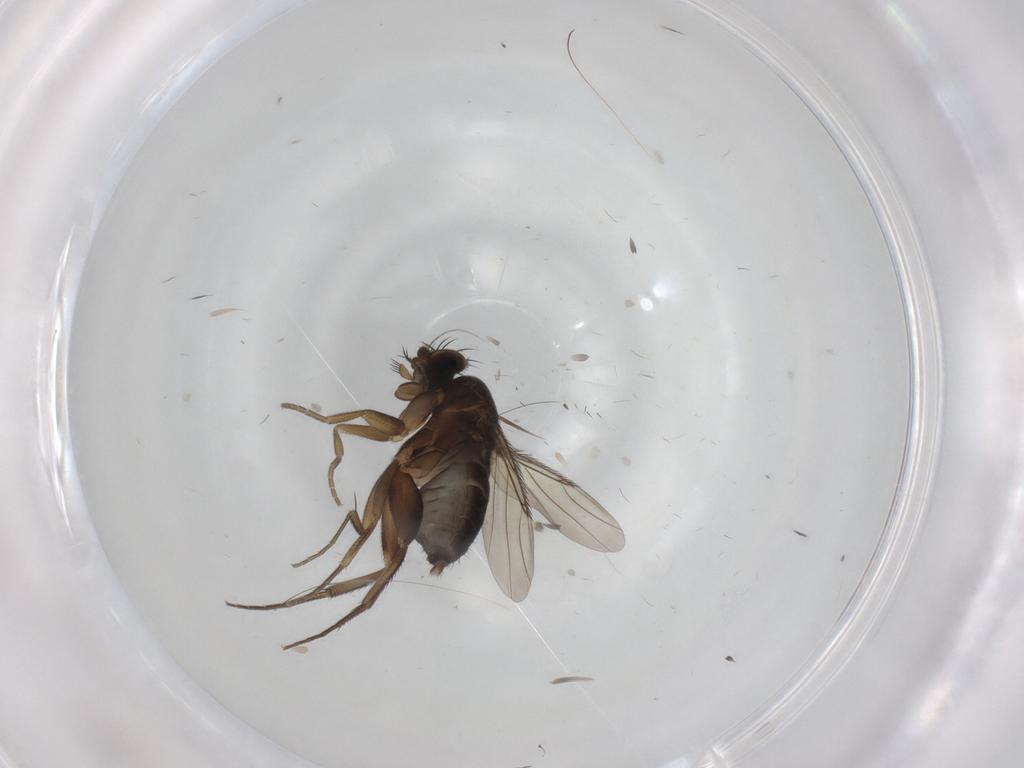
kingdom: Animalia
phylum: Arthropoda
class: Insecta
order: Diptera
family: Phoridae
